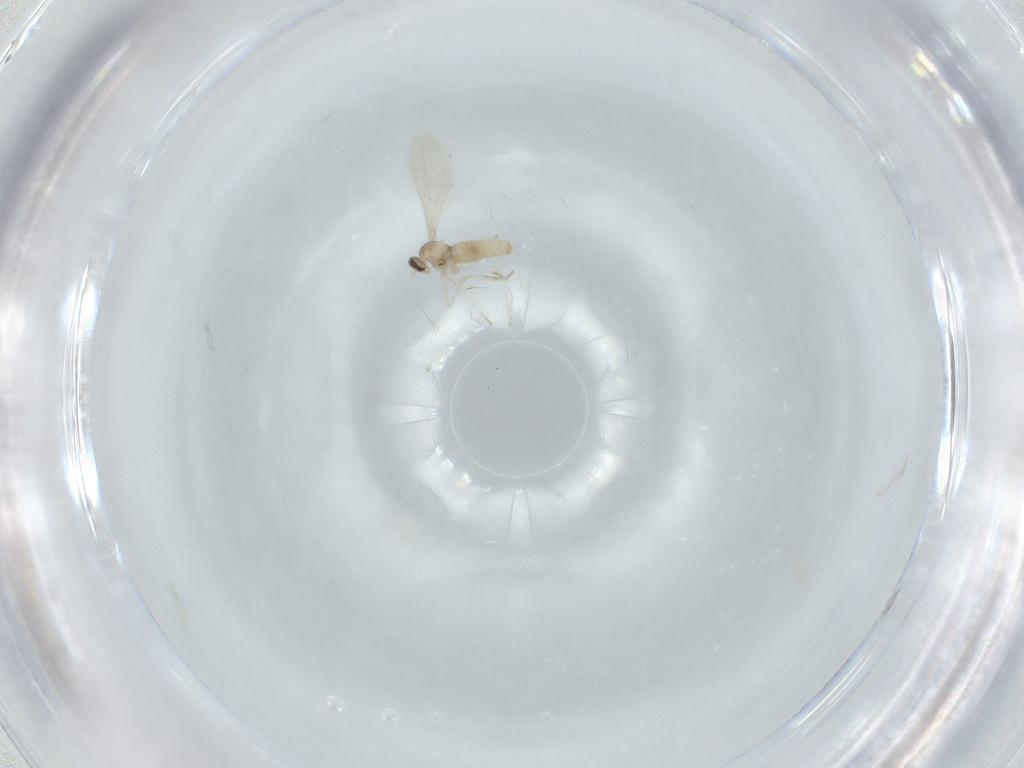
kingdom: Animalia
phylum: Arthropoda
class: Insecta
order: Diptera
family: Cecidomyiidae
